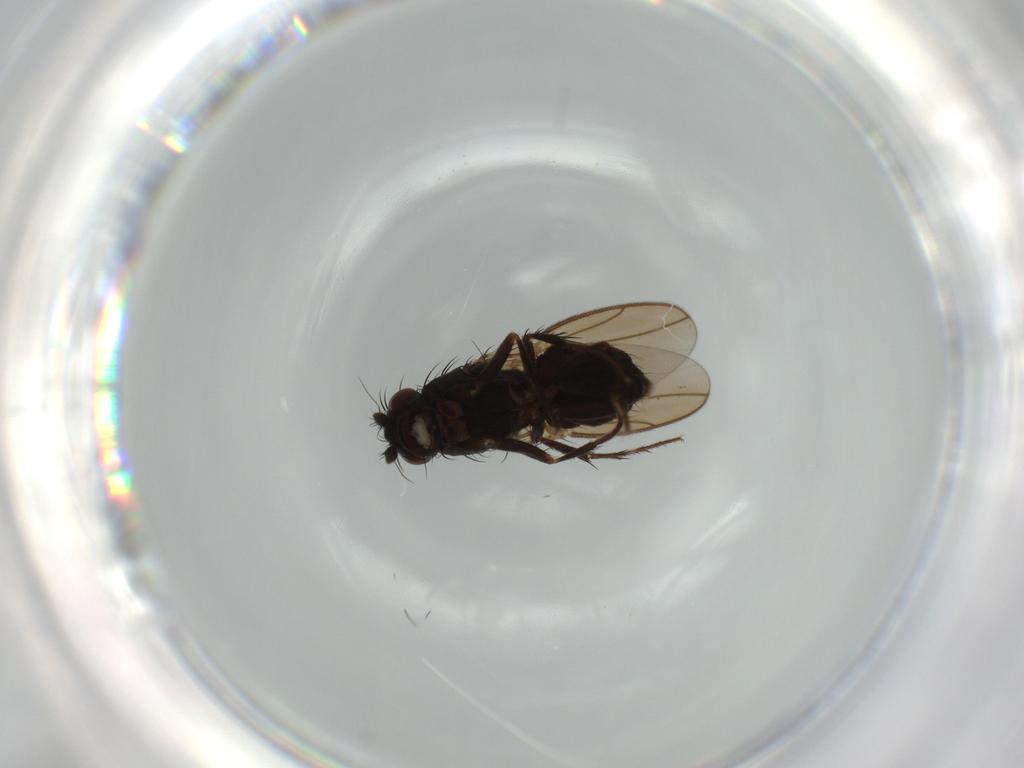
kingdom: Animalia
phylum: Arthropoda
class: Insecta
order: Diptera
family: Sphaeroceridae
